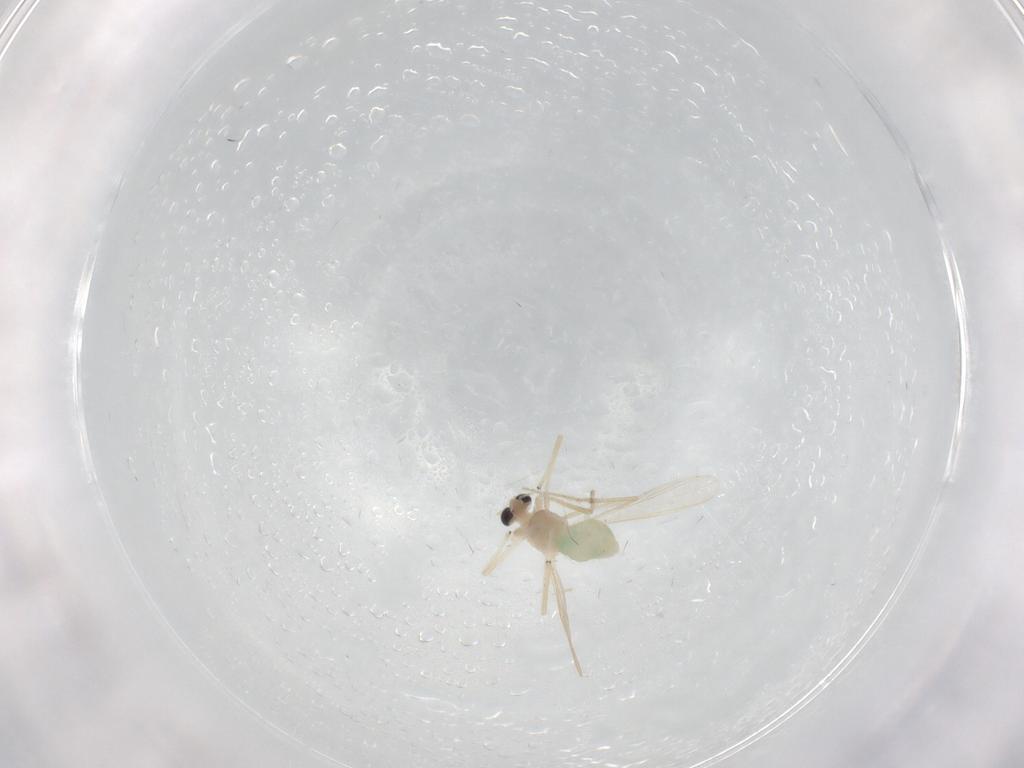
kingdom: Animalia
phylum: Arthropoda
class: Insecta
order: Diptera
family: Chironomidae
